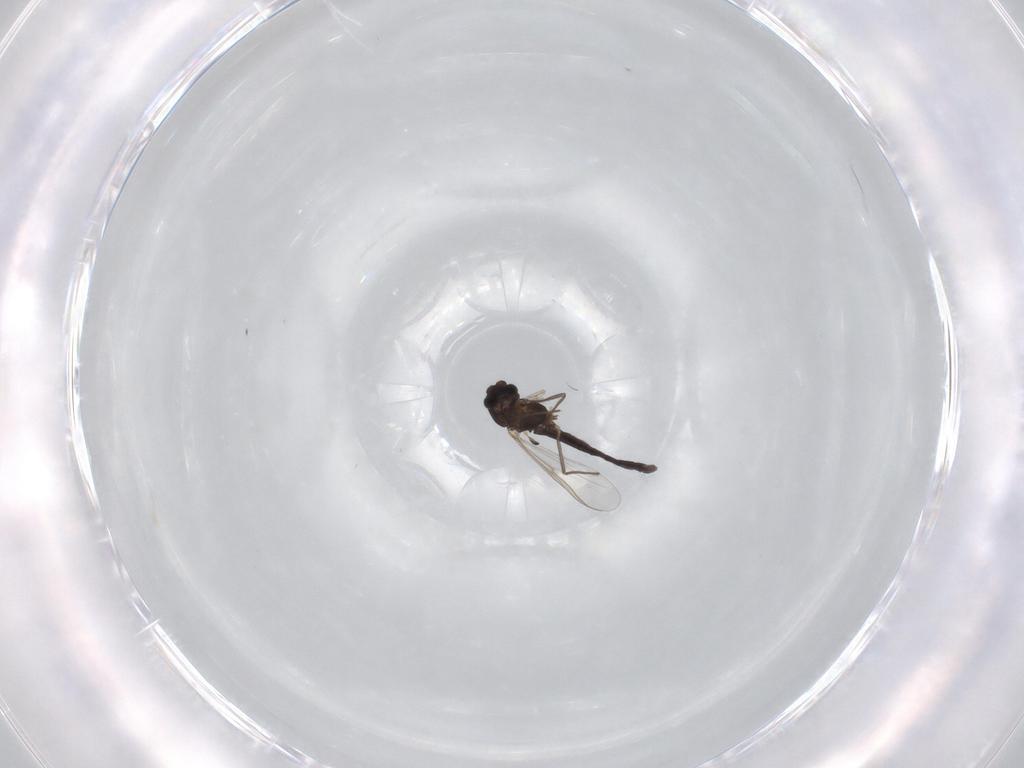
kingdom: Animalia
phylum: Arthropoda
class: Insecta
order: Diptera
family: Chironomidae
